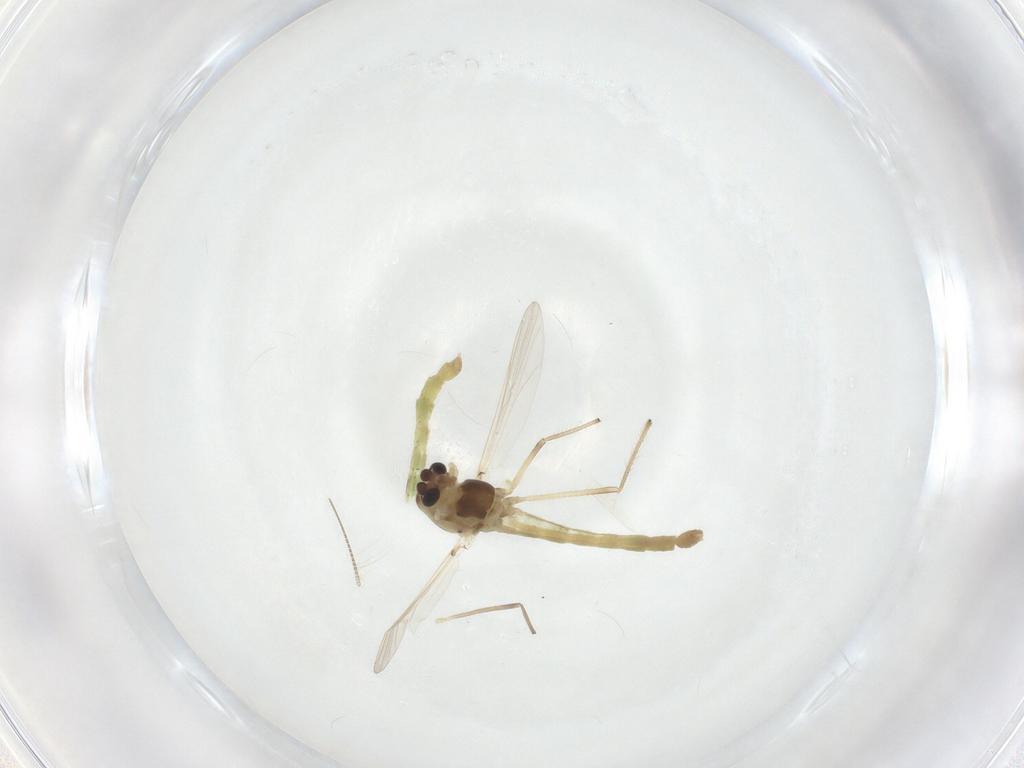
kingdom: Animalia
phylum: Arthropoda
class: Insecta
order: Diptera
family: Chironomidae
